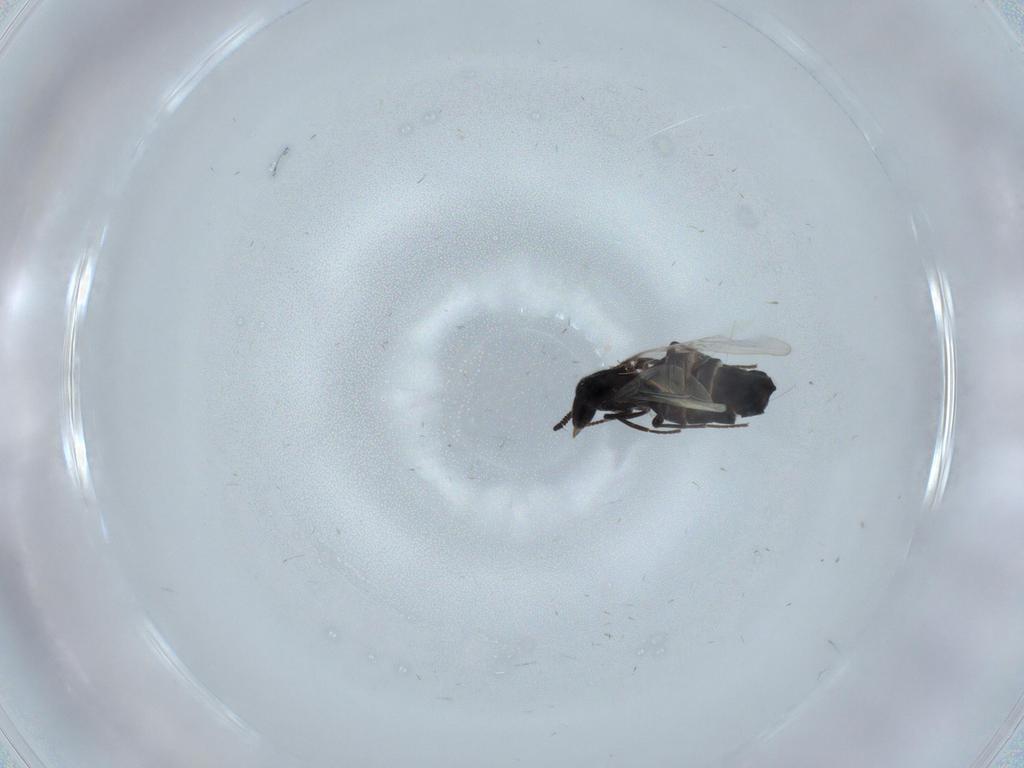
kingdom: Animalia
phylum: Arthropoda
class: Insecta
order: Diptera
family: Scatopsidae
